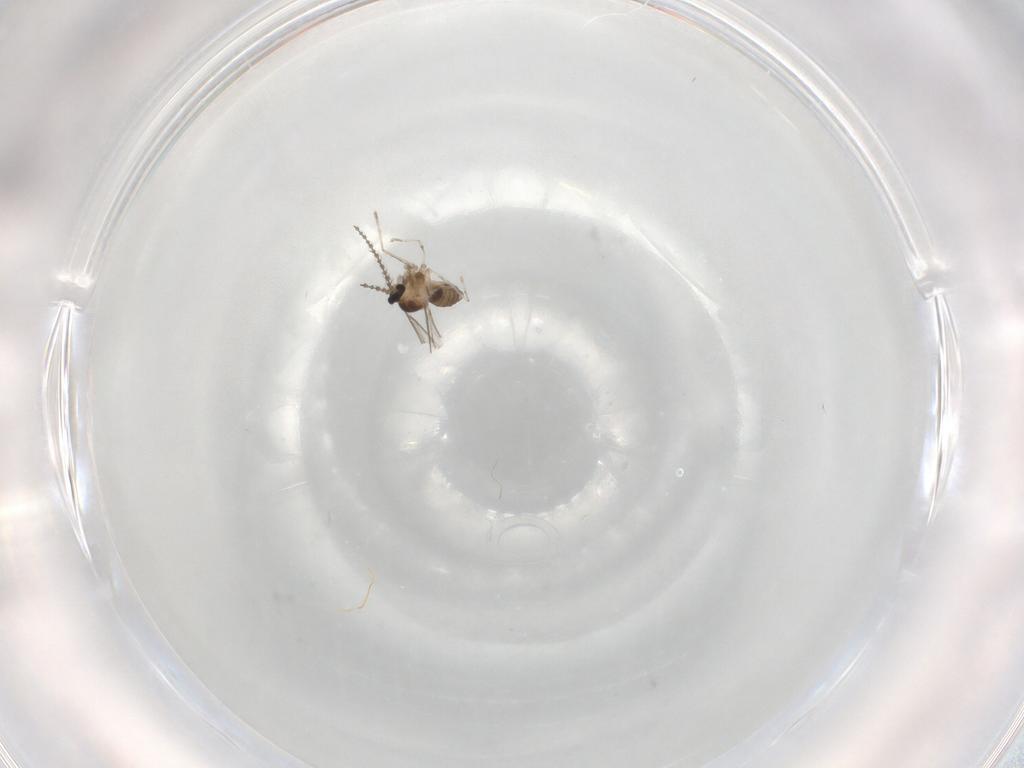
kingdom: Animalia
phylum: Arthropoda
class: Insecta
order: Diptera
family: Cecidomyiidae
